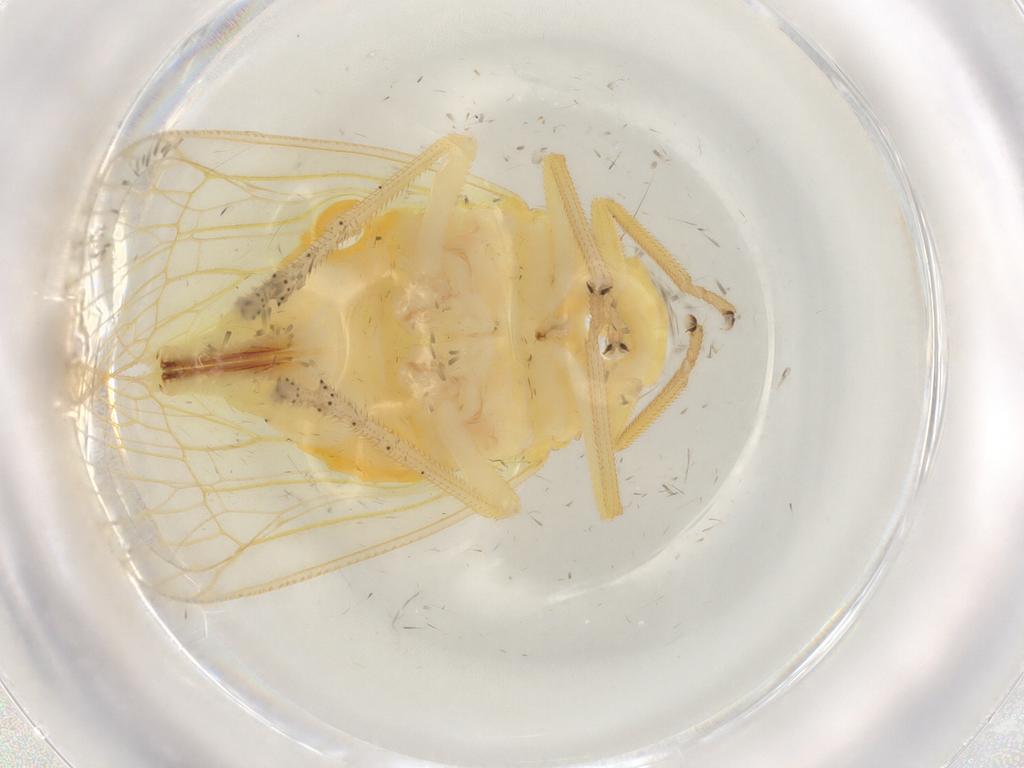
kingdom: Animalia
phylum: Arthropoda
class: Insecta
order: Hemiptera
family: Tropiduchidae
